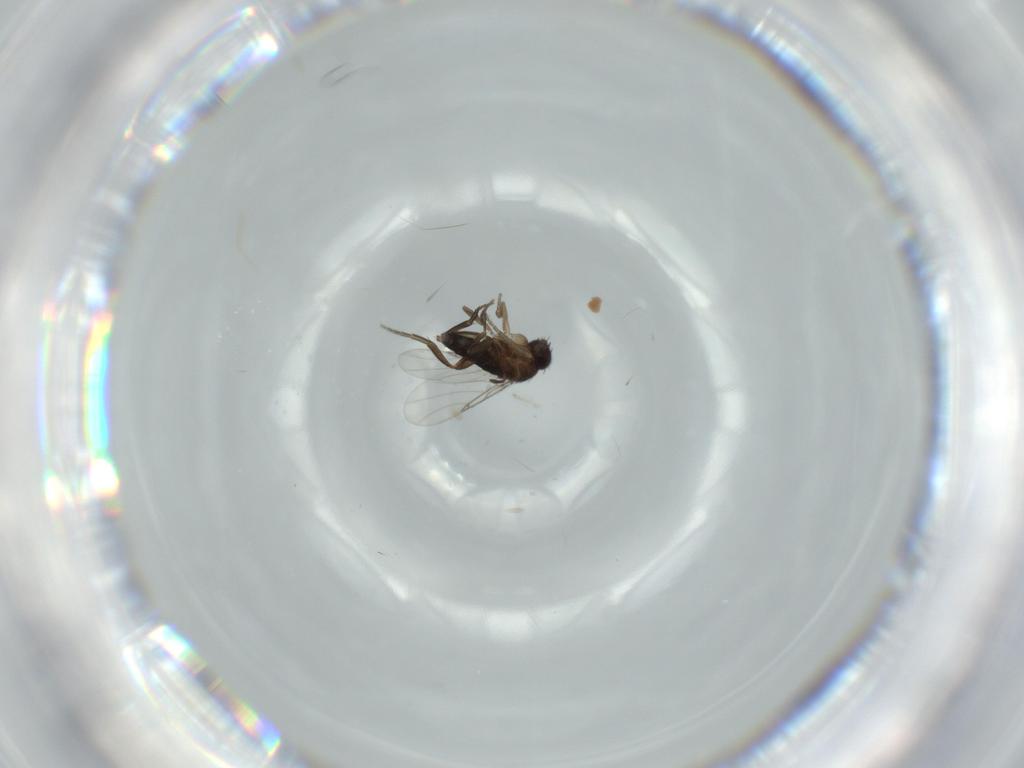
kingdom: Animalia
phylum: Arthropoda
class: Insecta
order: Diptera
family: Phoridae
